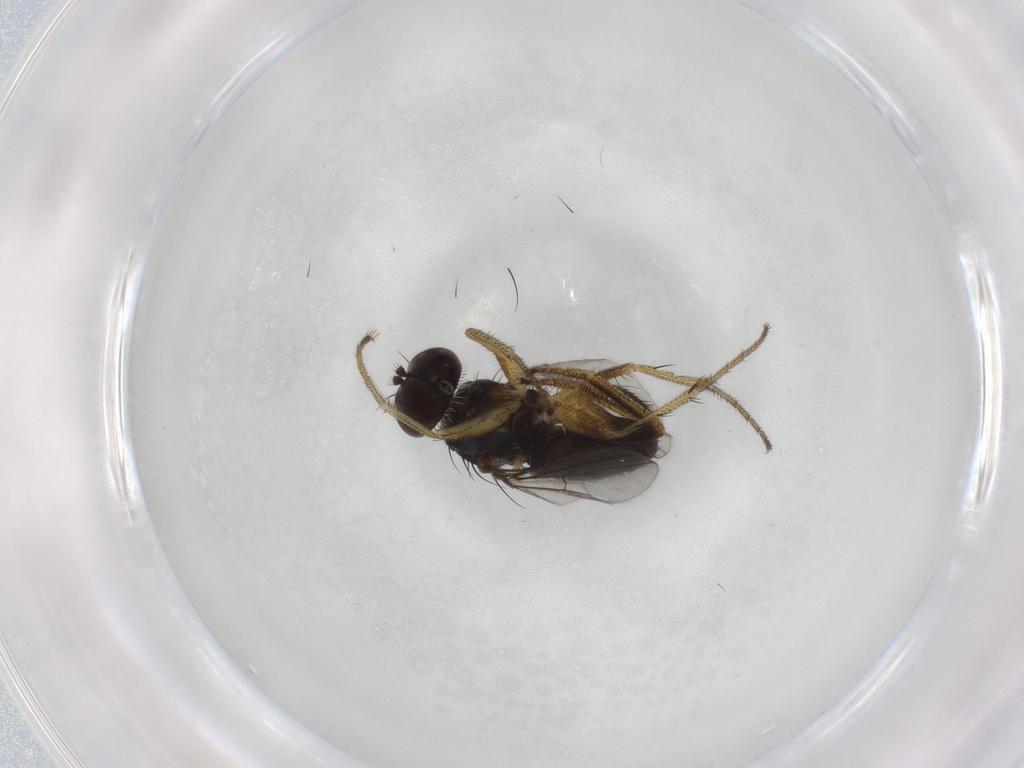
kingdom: Animalia
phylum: Arthropoda
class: Insecta
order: Diptera
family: Dolichopodidae
